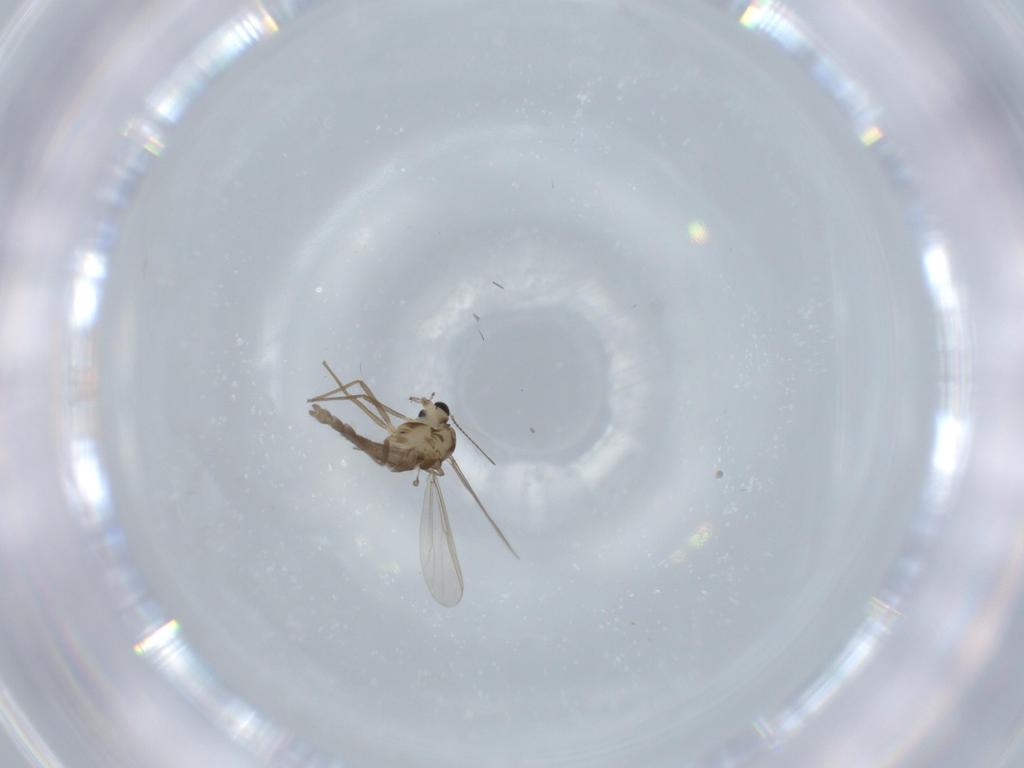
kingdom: Animalia
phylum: Arthropoda
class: Insecta
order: Diptera
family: Chironomidae
